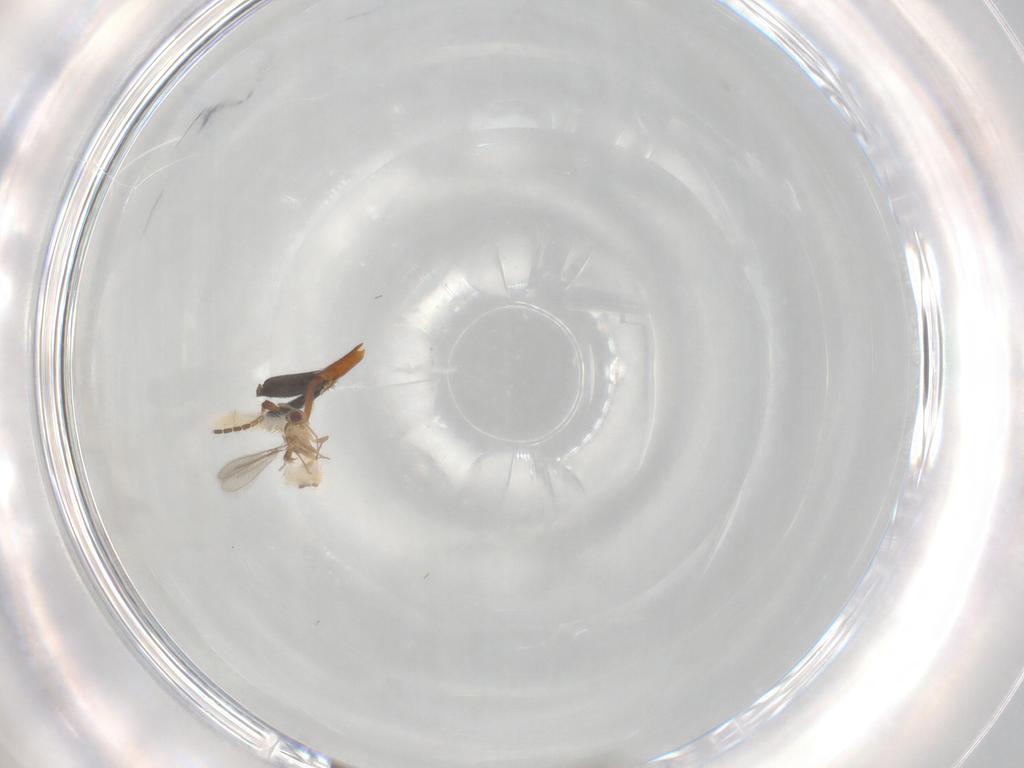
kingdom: Animalia
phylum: Arthropoda
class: Insecta
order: Hymenoptera
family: Ichneumonidae
